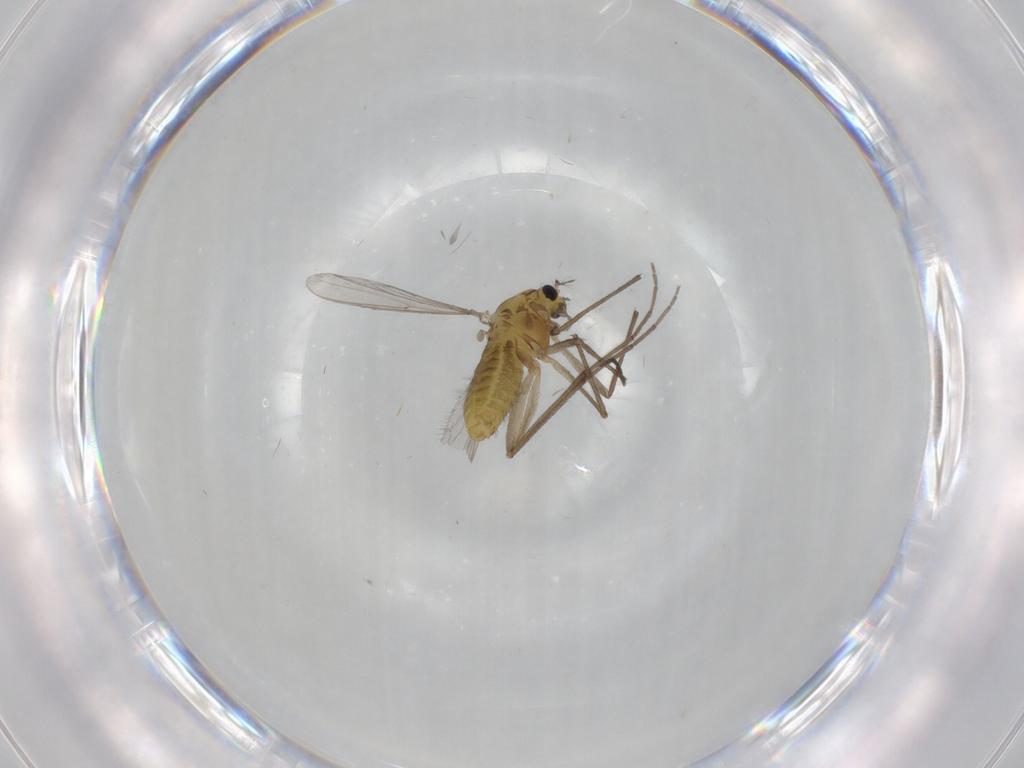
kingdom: Animalia
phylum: Arthropoda
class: Insecta
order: Diptera
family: Chironomidae
